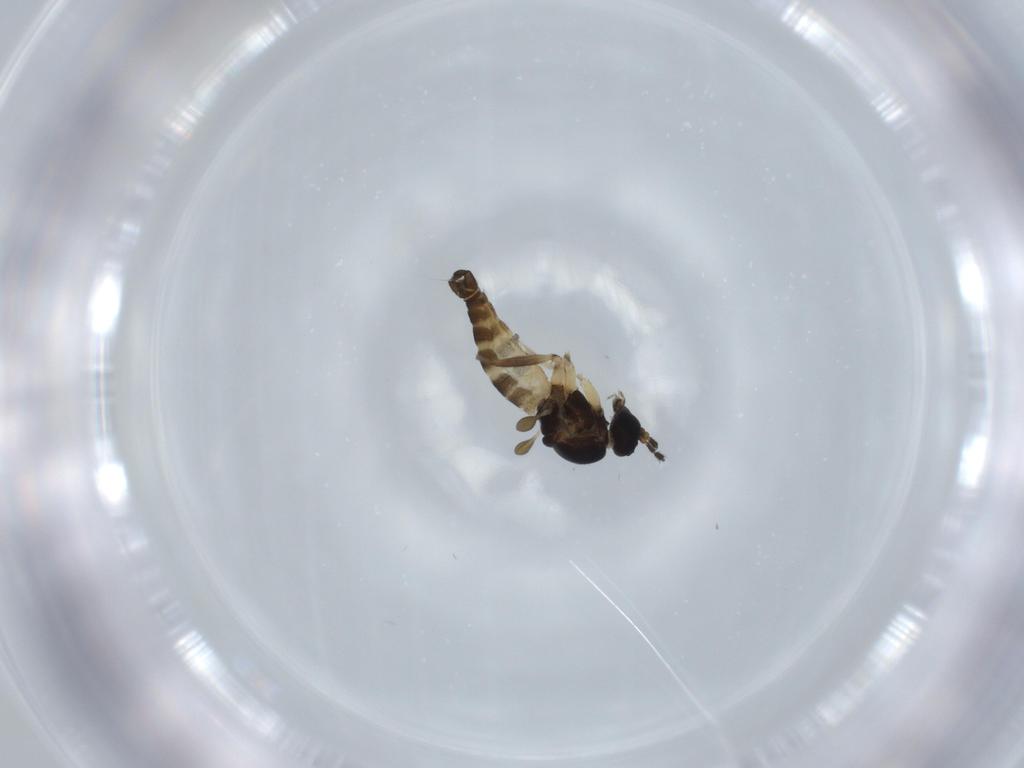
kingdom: Animalia
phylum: Arthropoda
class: Insecta
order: Diptera
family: Sciaridae
